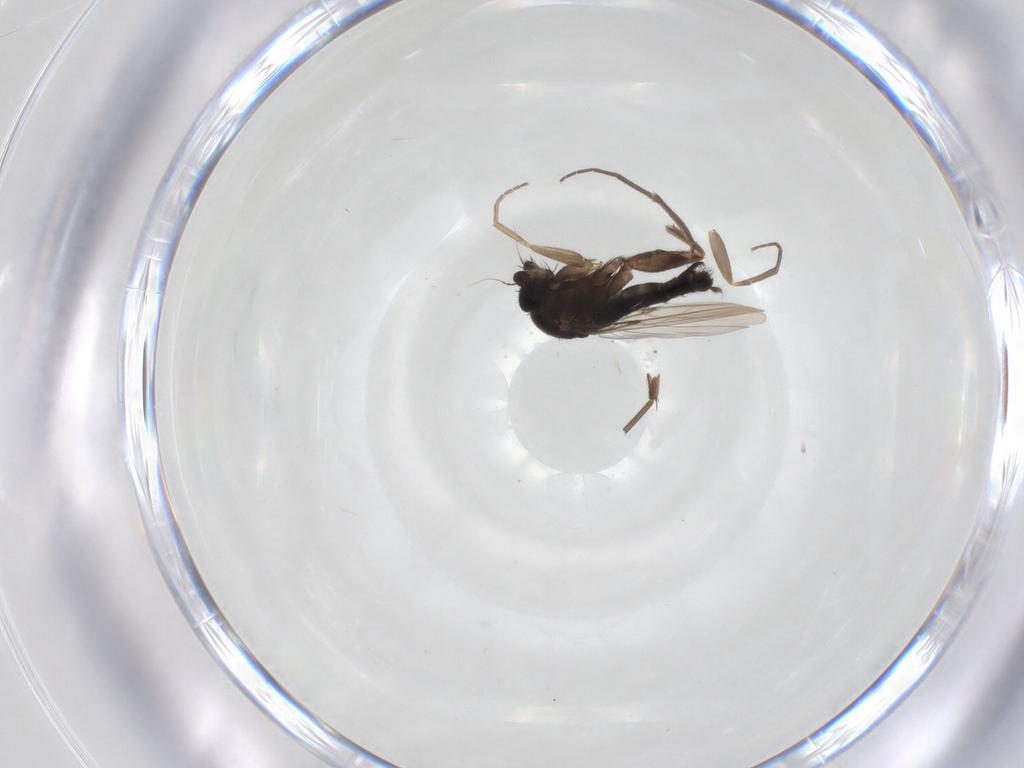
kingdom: Animalia
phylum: Arthropoda
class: Insecta
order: Diptera
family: Phoridae
